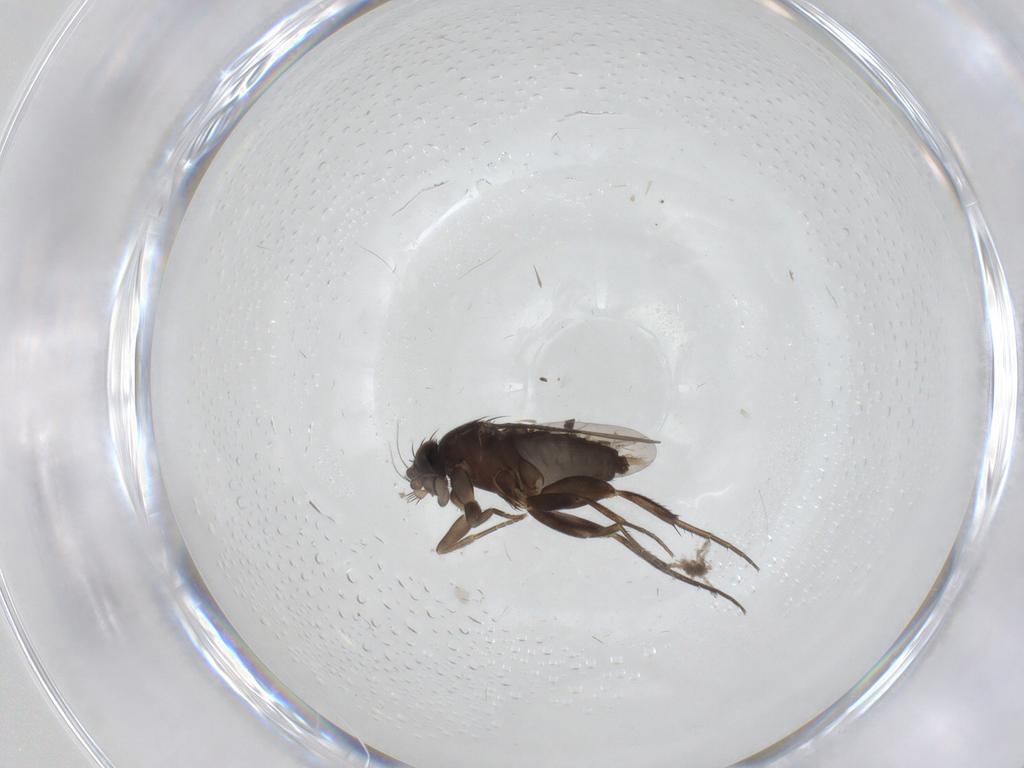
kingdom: Animalia
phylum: Arthropoda
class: Insecta
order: Diptera
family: Phoridae
